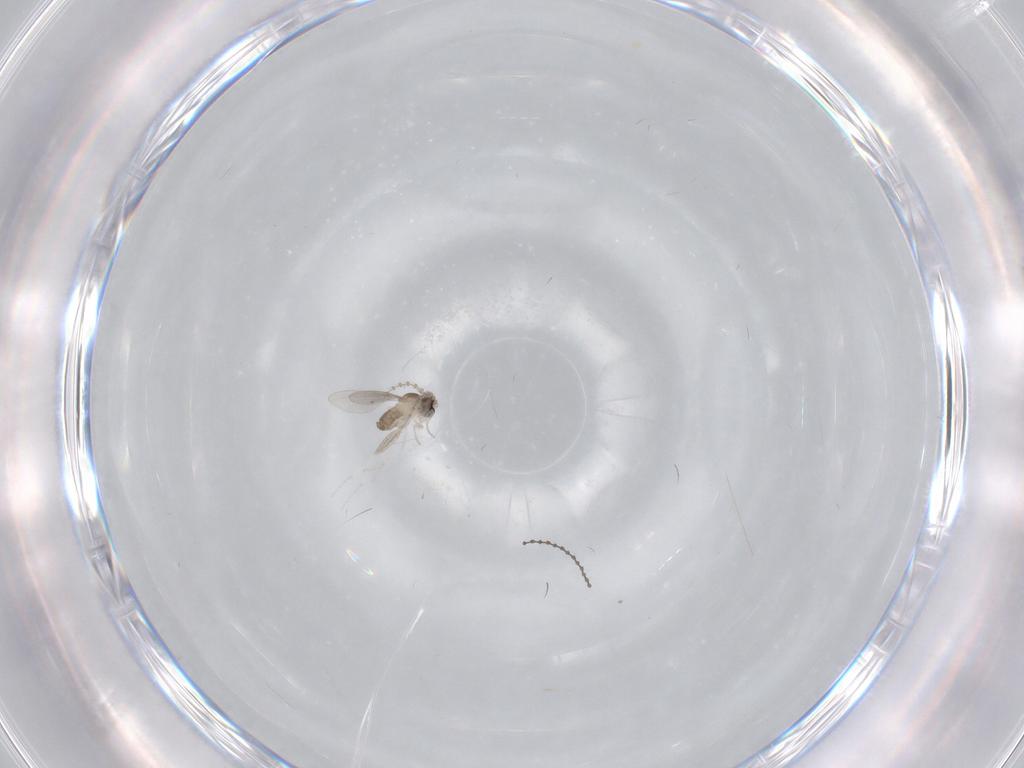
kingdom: Animalia
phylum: Arthropoda
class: Insecta
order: Diptera
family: Cecidomyiidae
